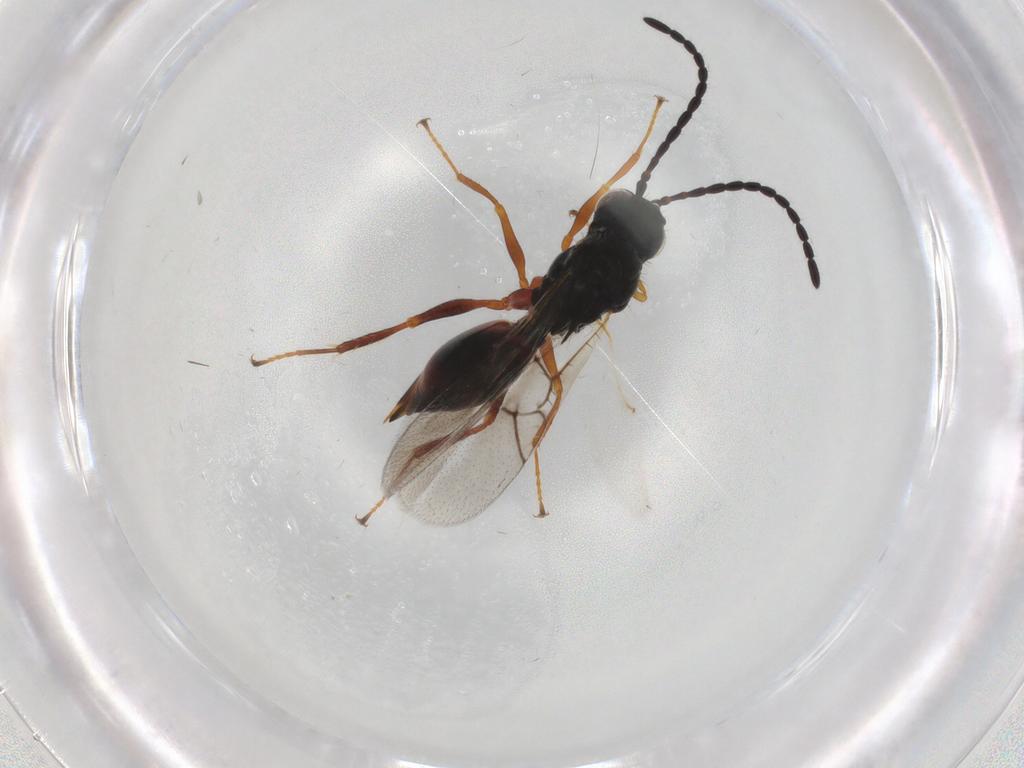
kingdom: Animalia
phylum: Arthropoda
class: Insecta
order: Hymenoptera
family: Figitidae
